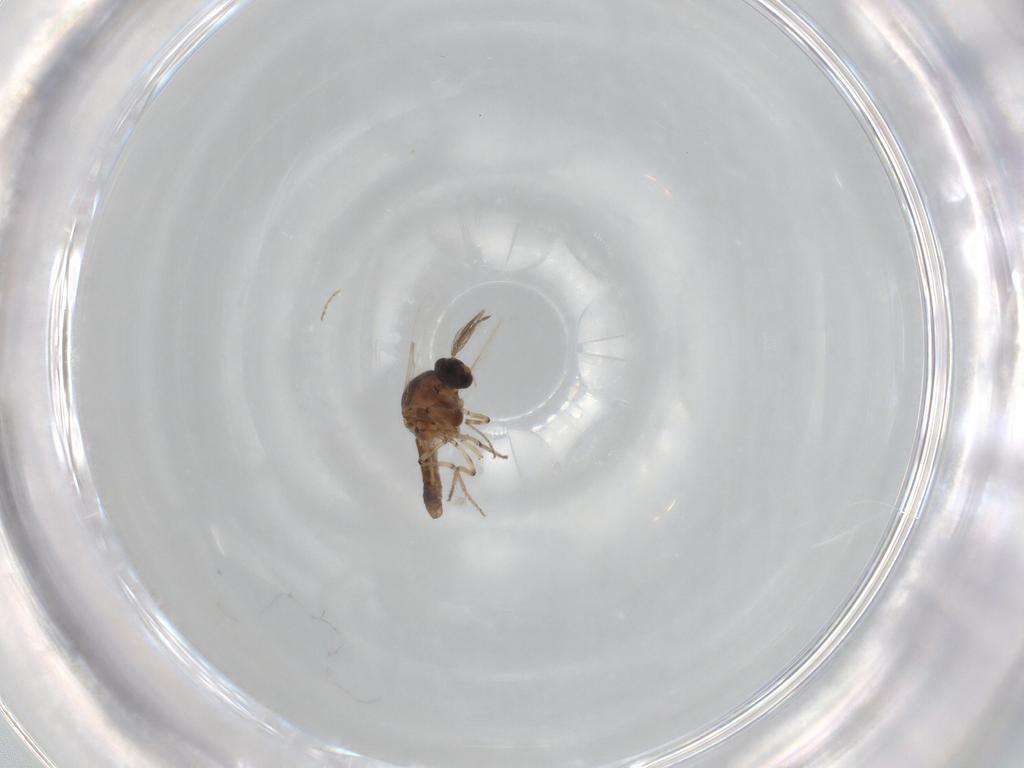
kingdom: Animalia
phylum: Arthropoda
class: Insecta
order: Diptera
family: Ceratopogonidae
